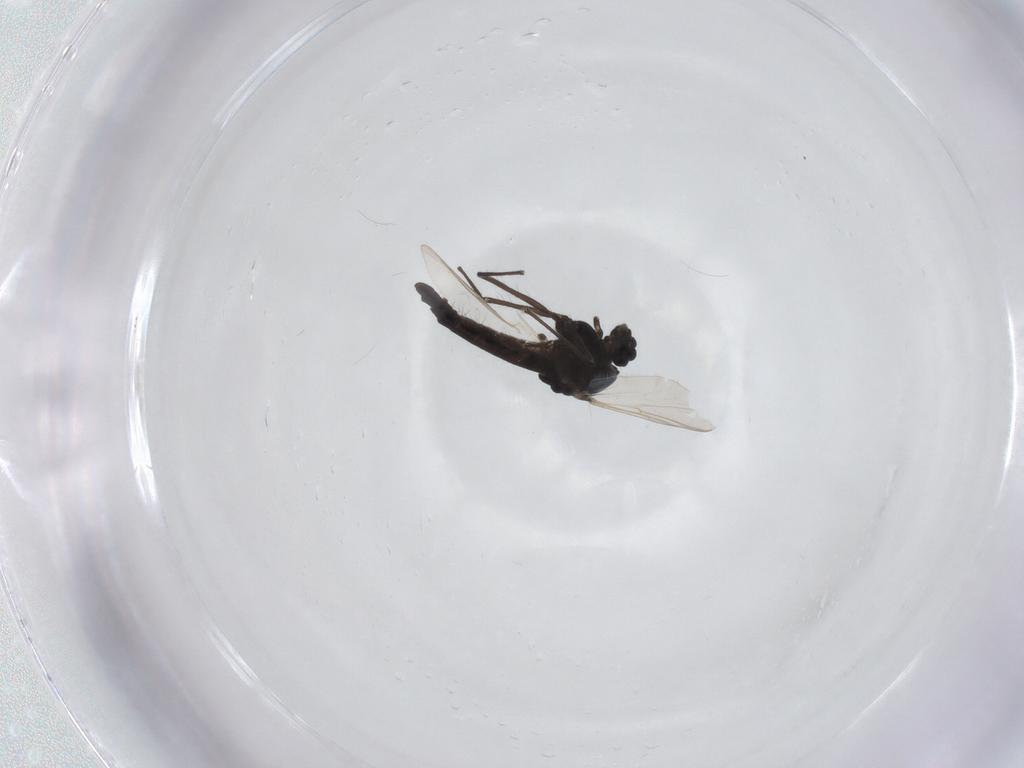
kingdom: Animalia
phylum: Arthropoda
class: Insecta
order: Diptera
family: Chironomidae
